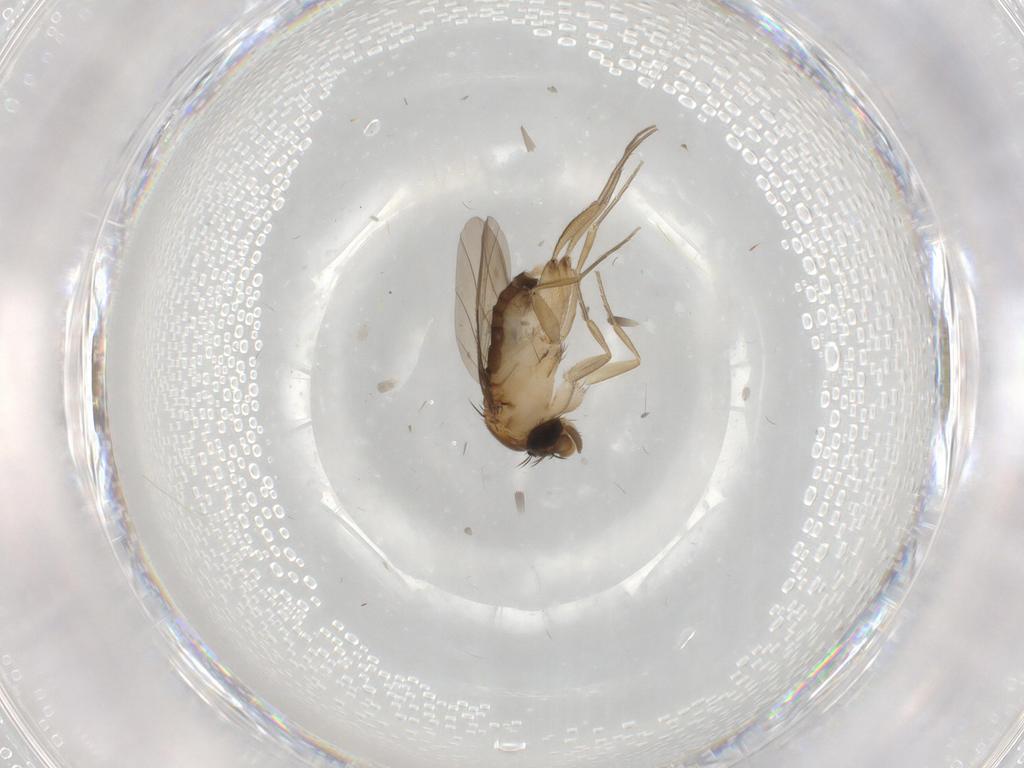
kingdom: Animalia
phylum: Arthropoda
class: Insecta
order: Diptera
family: Phoridae
